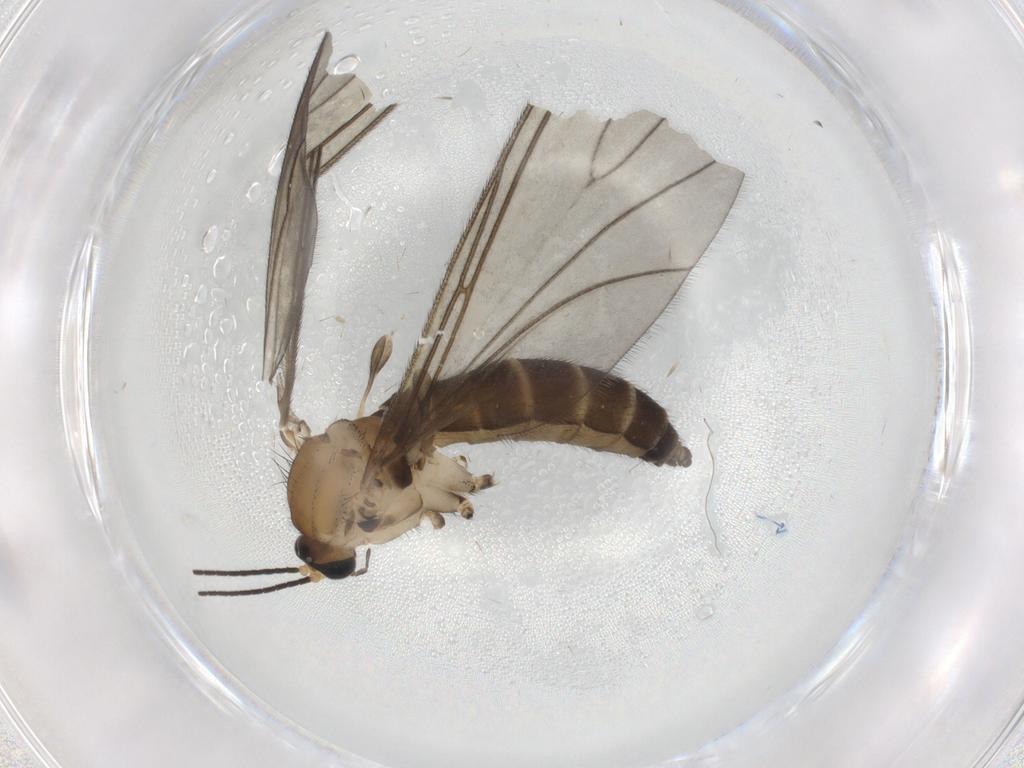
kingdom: Animalia
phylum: Arthropoda
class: Insecta
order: Diptera
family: Sciaridae
